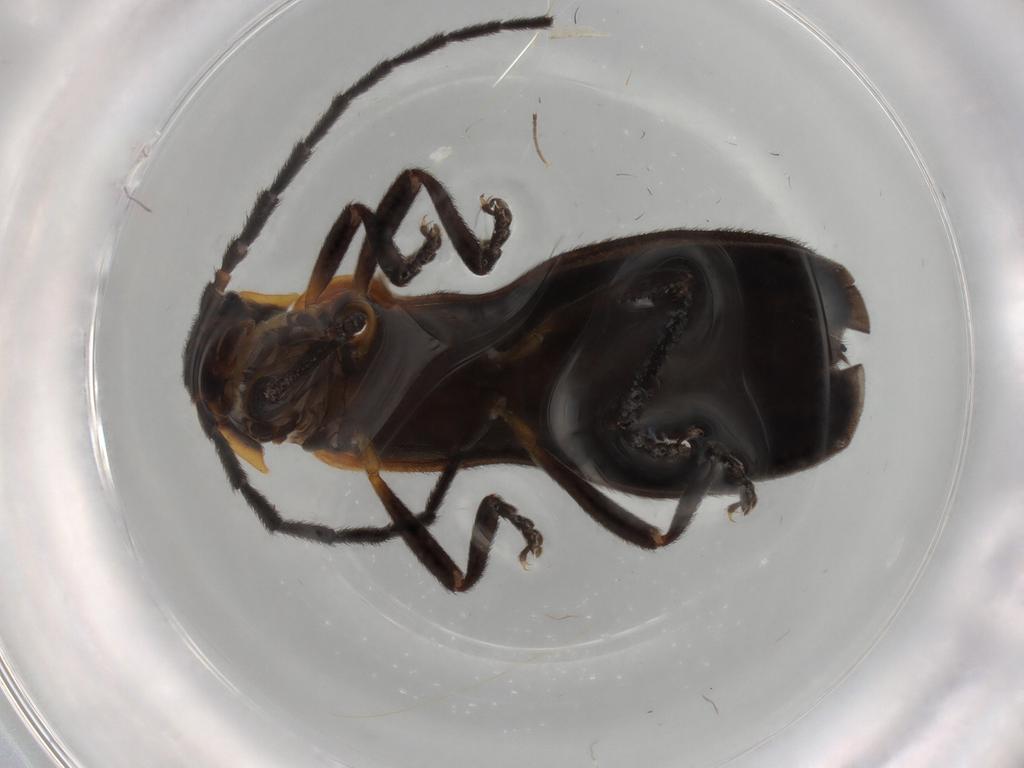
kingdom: Animalia
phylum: Arthropoda
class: Insecta
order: Coleoptera
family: Lycidae
